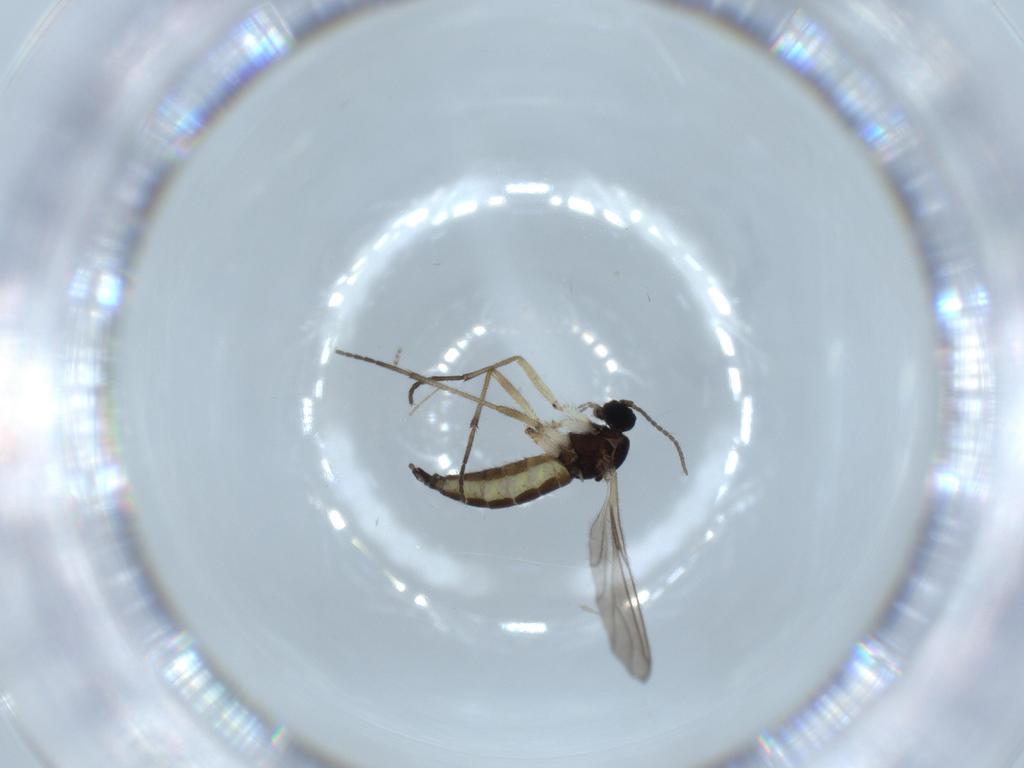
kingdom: Animalia
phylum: Arthropoda
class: Insecta
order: Diptera
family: Sciaridae
